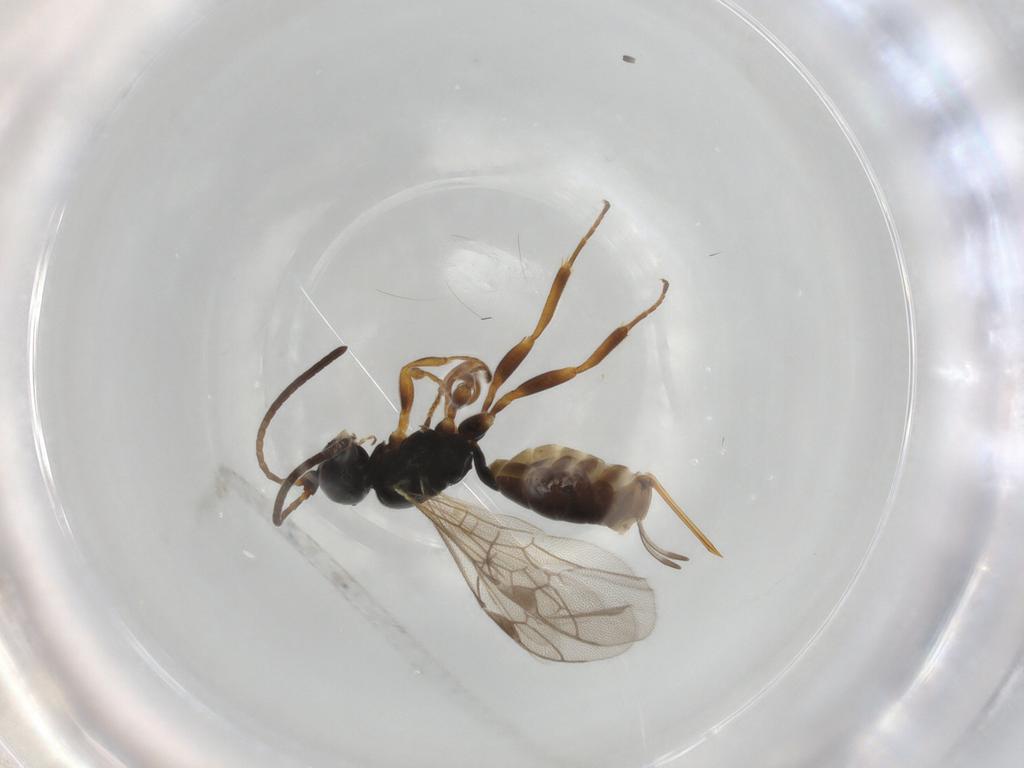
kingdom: Animalia
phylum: Arthropoda
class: Insecta
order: Hymenoptera
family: Ichneumonidae
